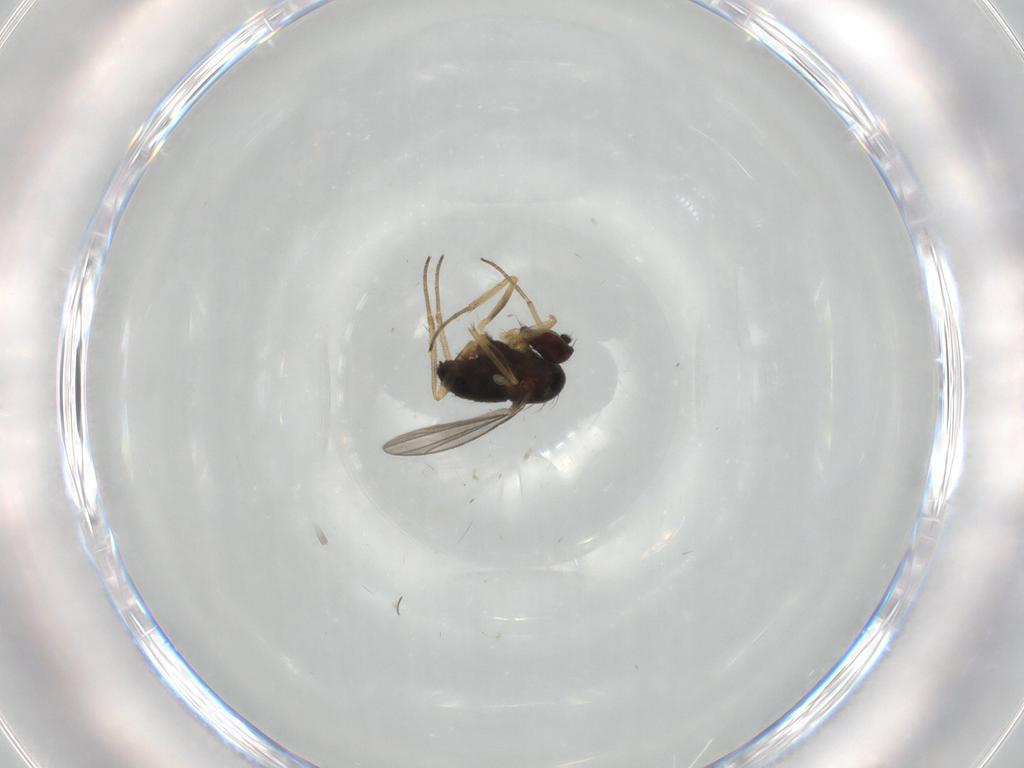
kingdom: Animalia
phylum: Arthropoda
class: Insecta
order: Diptera
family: Dolichopodidae
